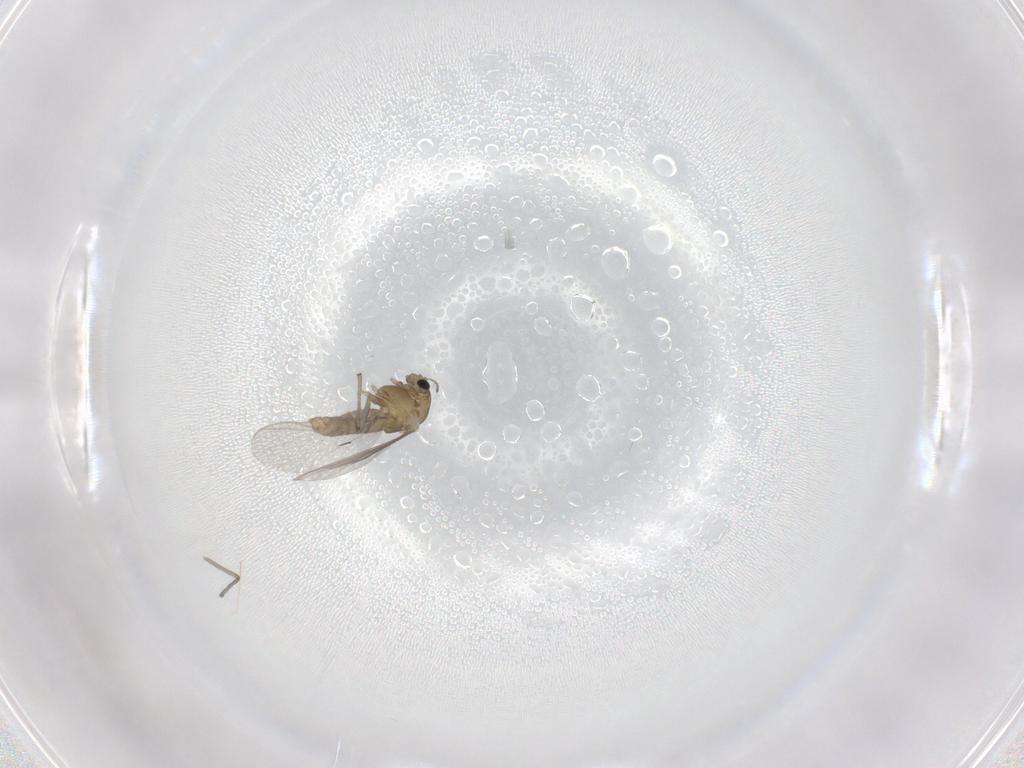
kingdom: Animalia
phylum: Arthropoda
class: Insecta
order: Diptera
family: Chironomidae
